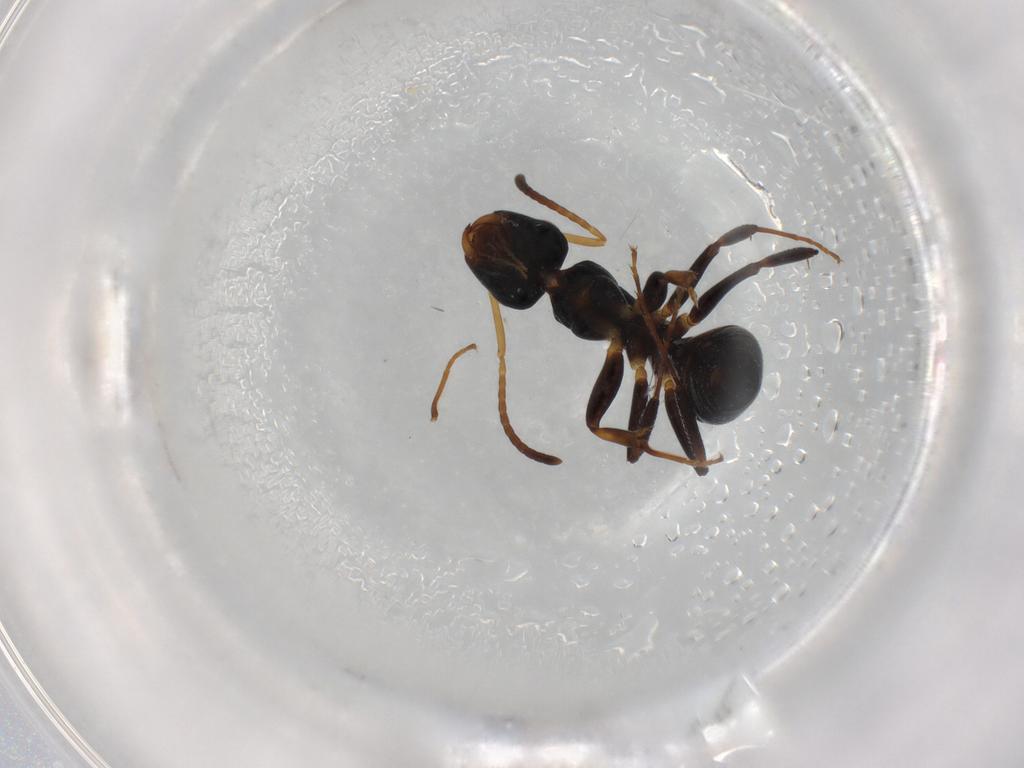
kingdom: Animalia
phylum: Arthropoda
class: Insecta
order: Hymenoptera
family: Formicidae
